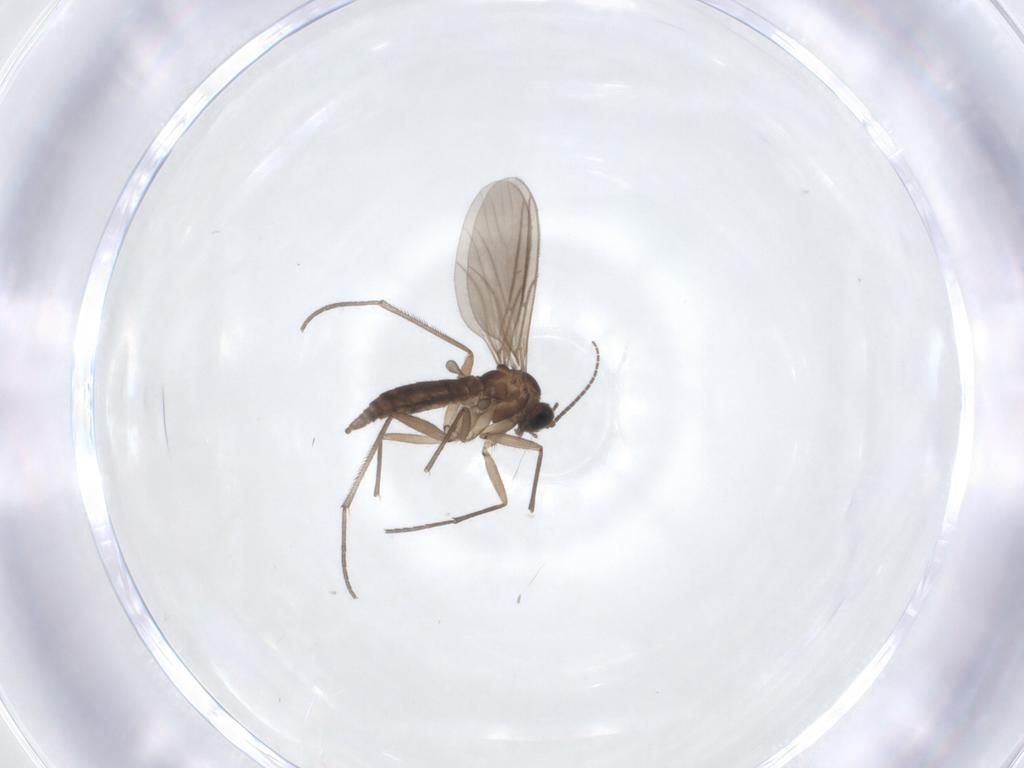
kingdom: Animalia
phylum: Arthropoda
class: Insecta
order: Diptera
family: Sciaridae
